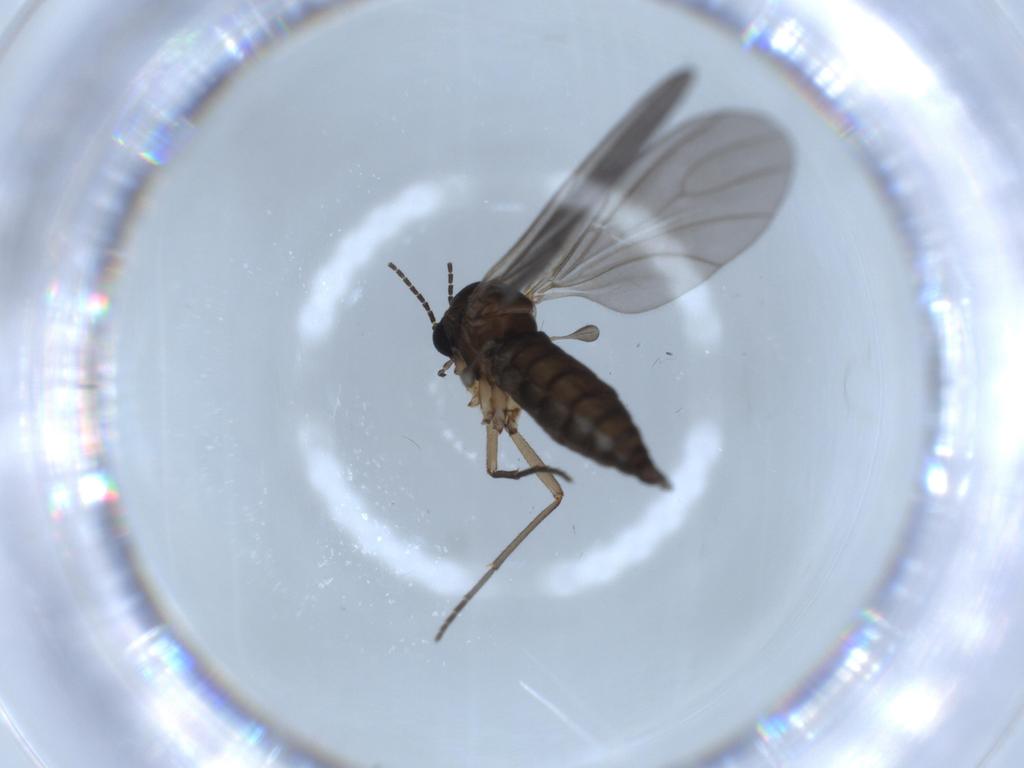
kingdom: Animalia
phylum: Arthropoda
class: Insecta
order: Diptera
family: Sciaridae
